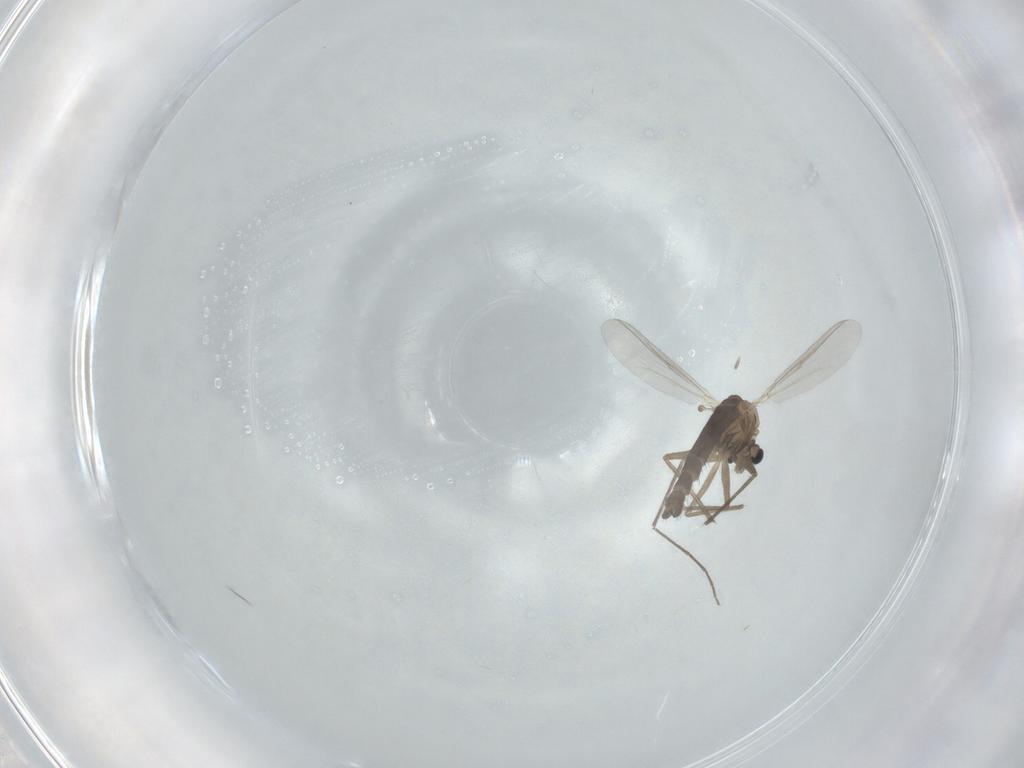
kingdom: Animalia
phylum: Arthropoda
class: Insecta
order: Diptera
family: Chironomidae
